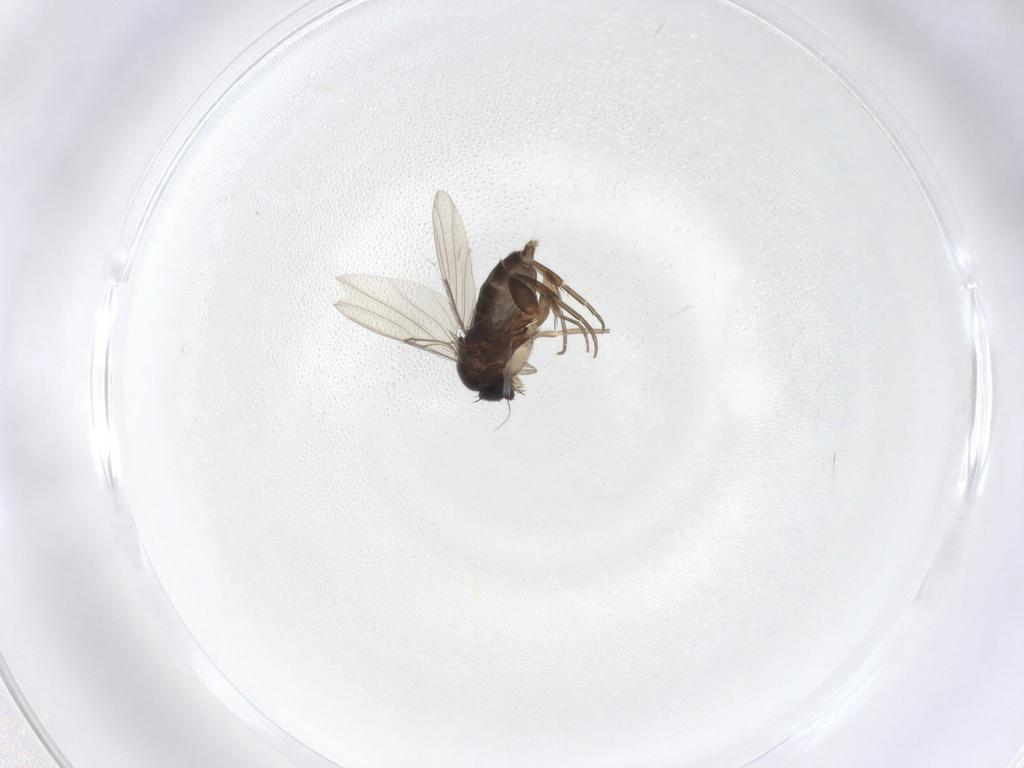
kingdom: Animalia
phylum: Arthropoda
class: Insecta
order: Diptera
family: Phoridae
